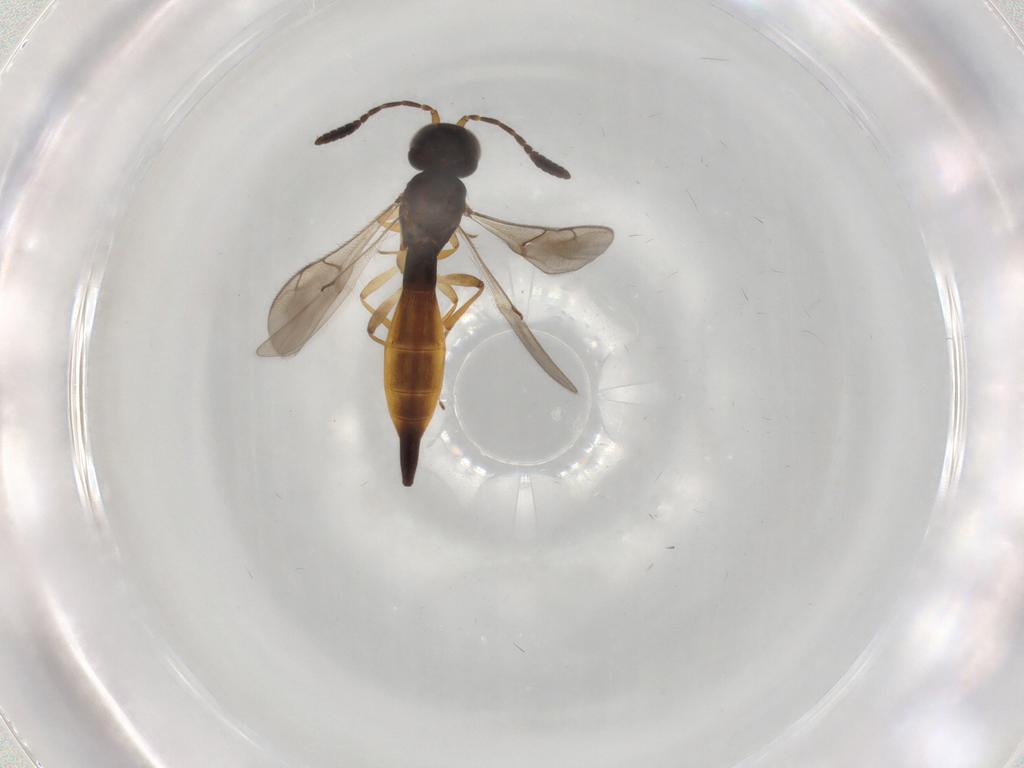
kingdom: Animalia
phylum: Arthropoda
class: Insecta
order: Hymenoptera
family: Scelionidae
